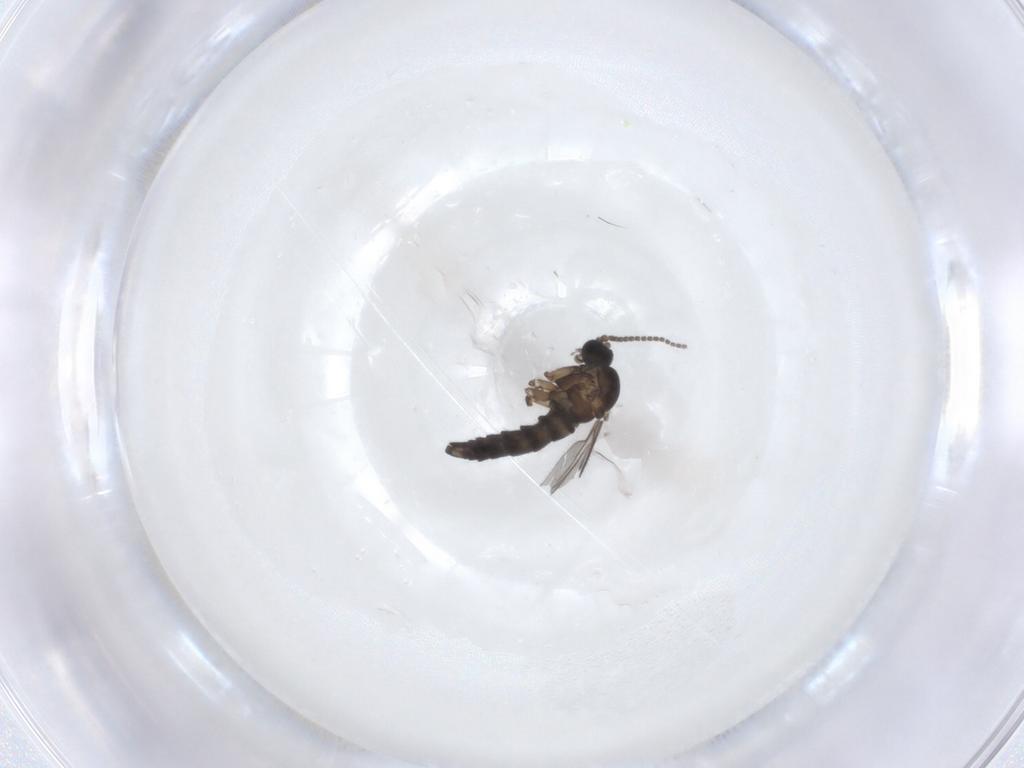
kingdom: Animalia
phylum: Arthropoda
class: Insecta
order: Diptera
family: Sciaridae
